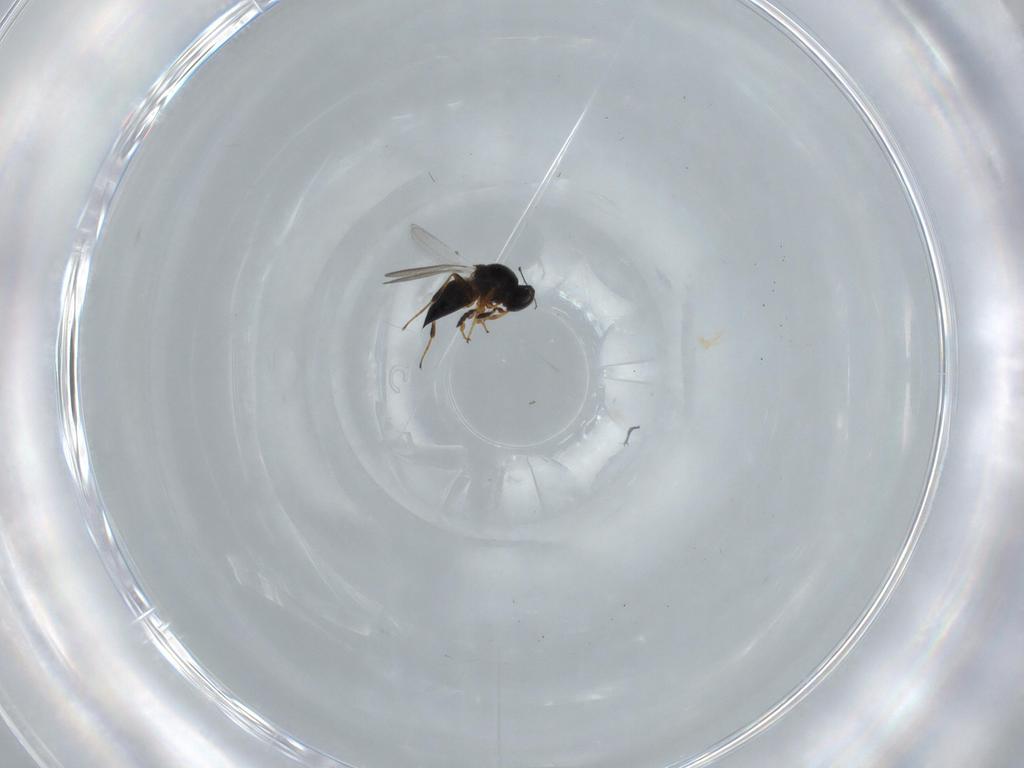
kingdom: Animalia
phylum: Arthropoda
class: Insecta
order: Hymenoptera
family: Platygastridae
